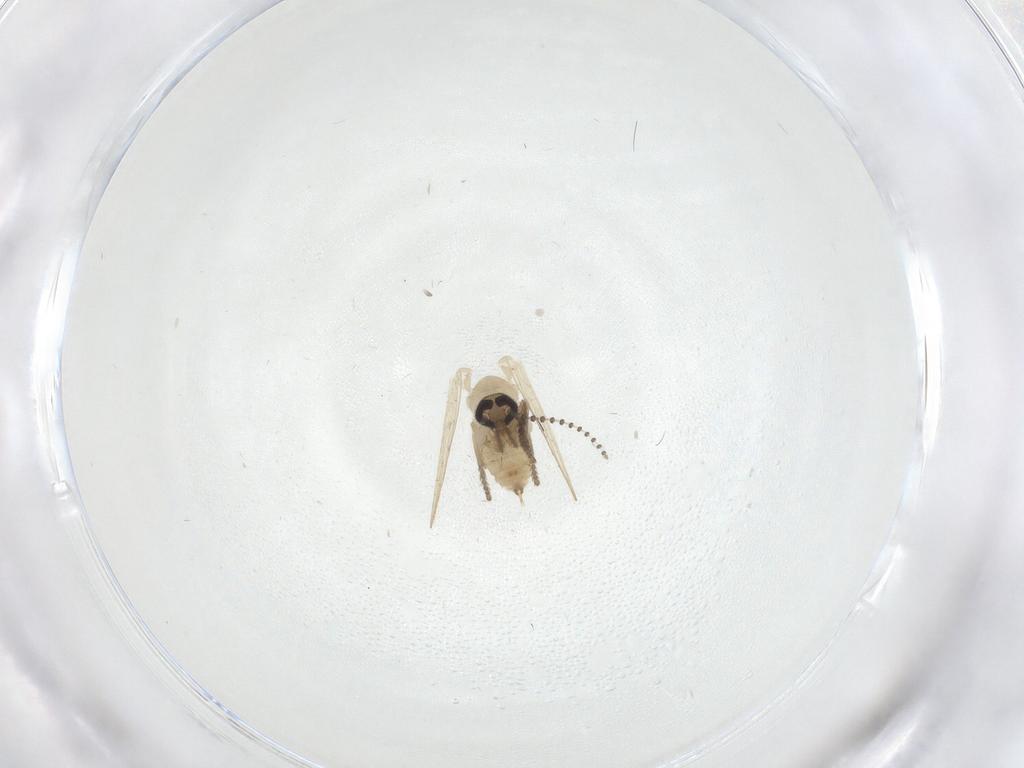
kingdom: Animalia
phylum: Arthropoda
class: Insecta
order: Diptera
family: Psychodidae
